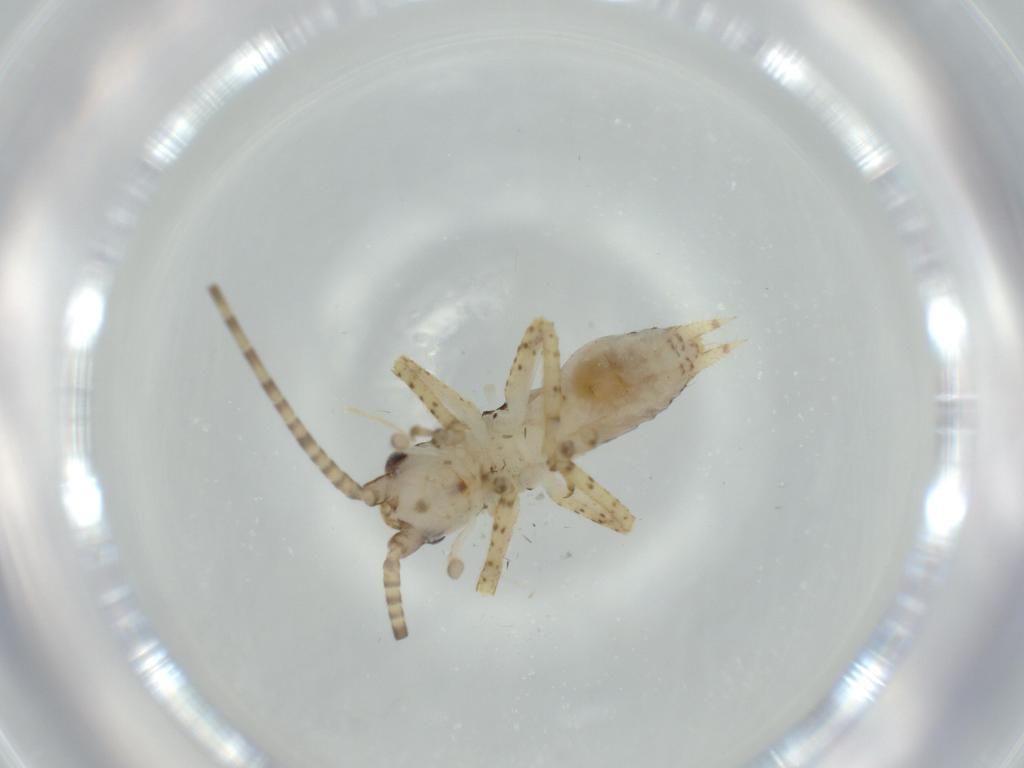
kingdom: Animalia
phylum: Arthropoda
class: Insecta
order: Orthoptera
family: Gryllidae
